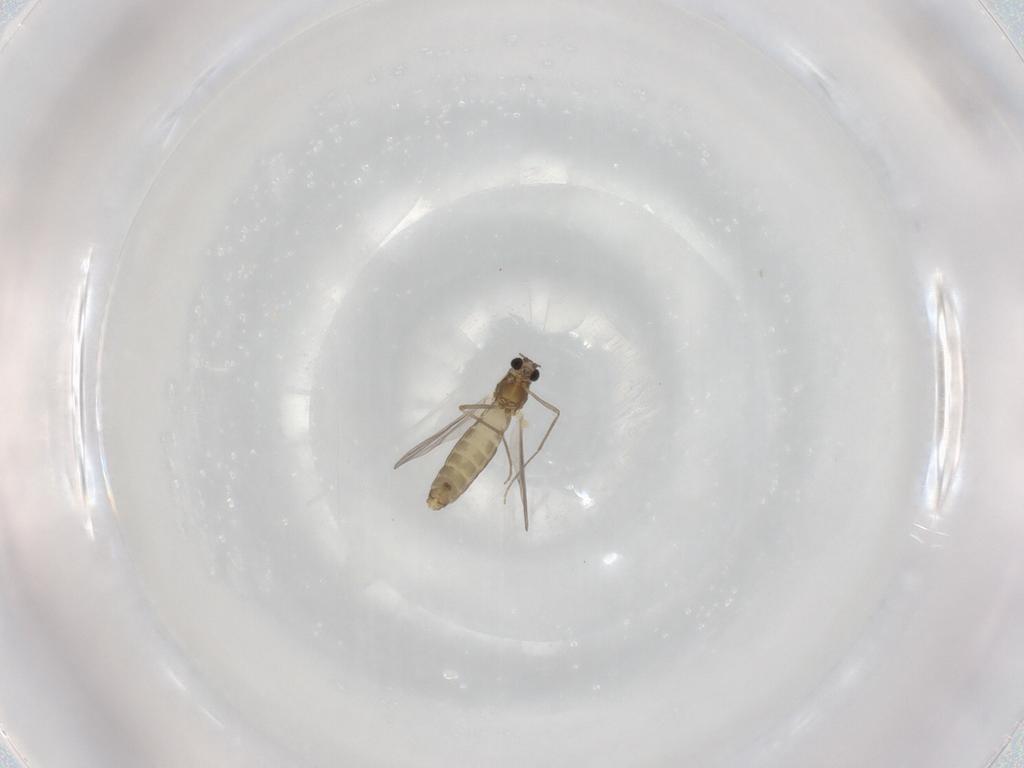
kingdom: Animalia
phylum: Arthropoda
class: Insecta
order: Diptera
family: Chironomidae
